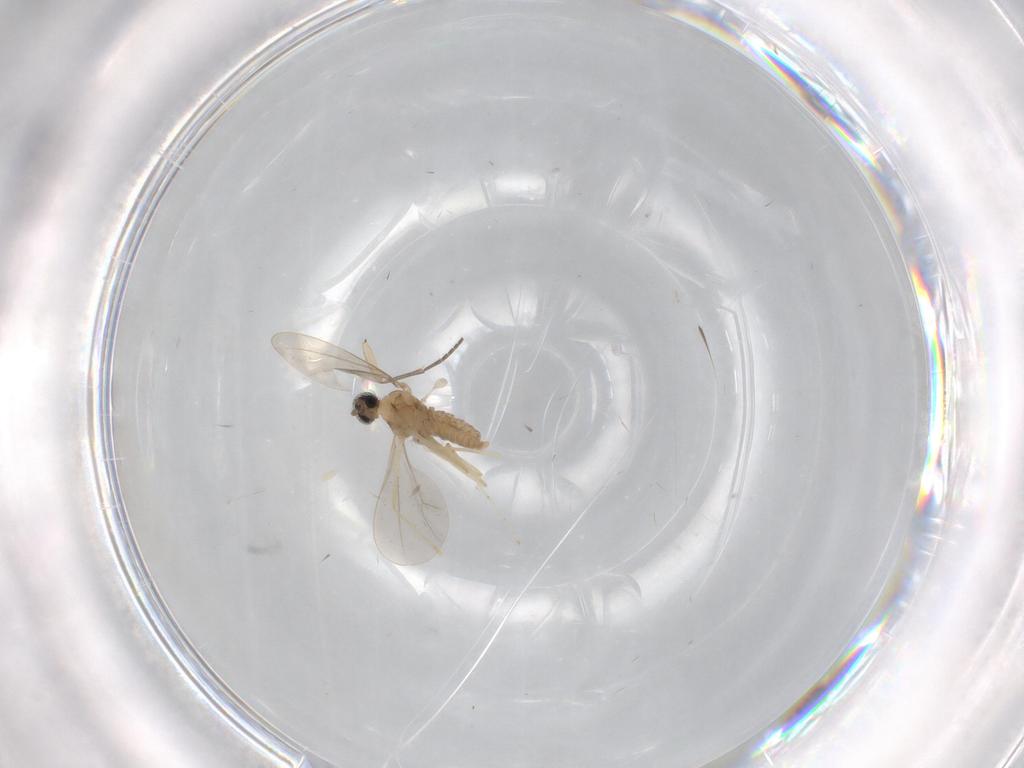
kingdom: Animalia
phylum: Arthropoda
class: Insecta
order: Diptera
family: Cecidomyiidae
